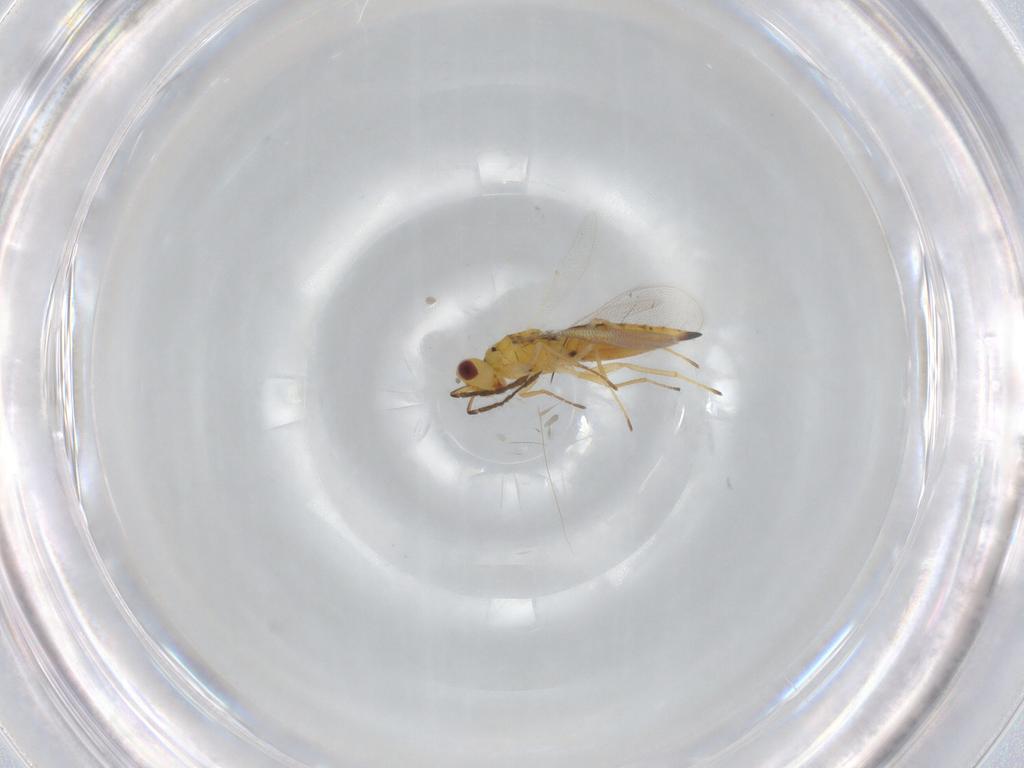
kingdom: Animalia
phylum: Arthropoda
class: Insecta
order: Hymenoptera
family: Eulophidae
